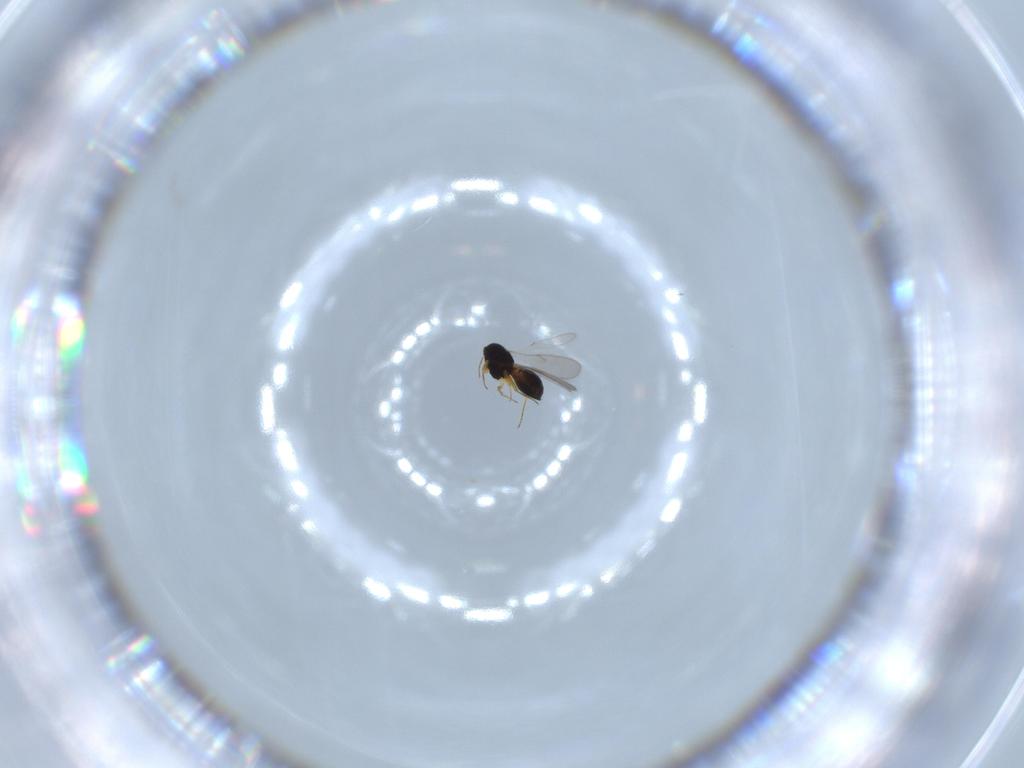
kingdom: Animalia
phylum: Arthropoda
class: Insecta
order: Hymenoptera
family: Scelionidae
